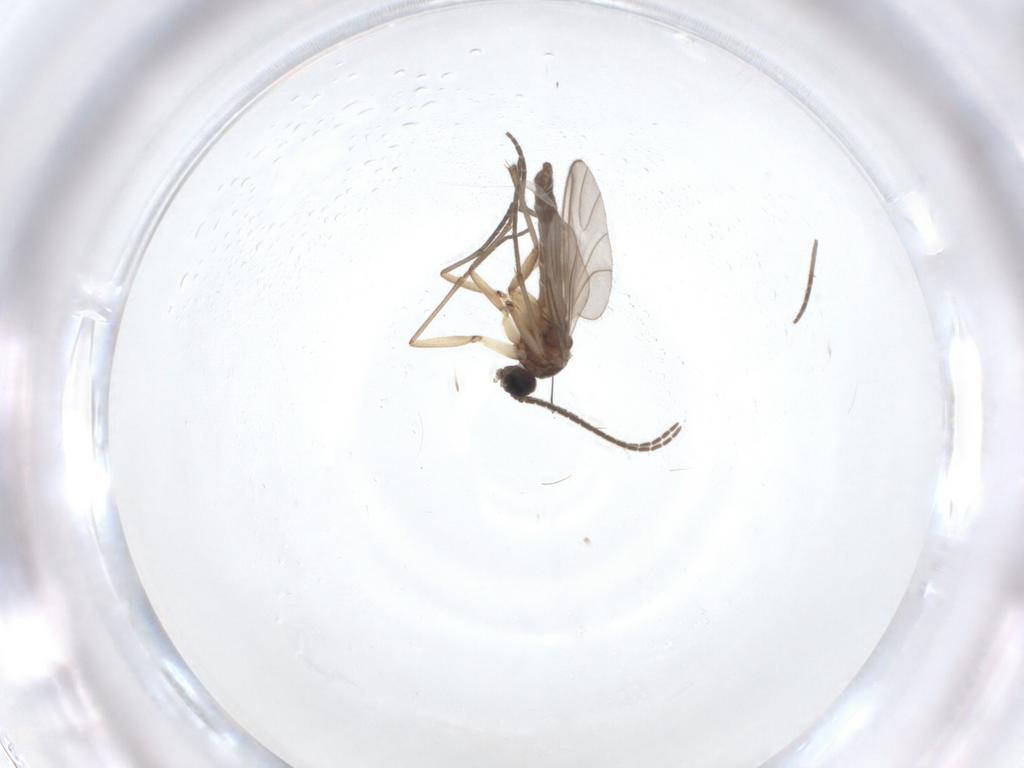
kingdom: Animalia
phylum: Arthropoda
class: Insecta
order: Diptera
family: Sciaridae
